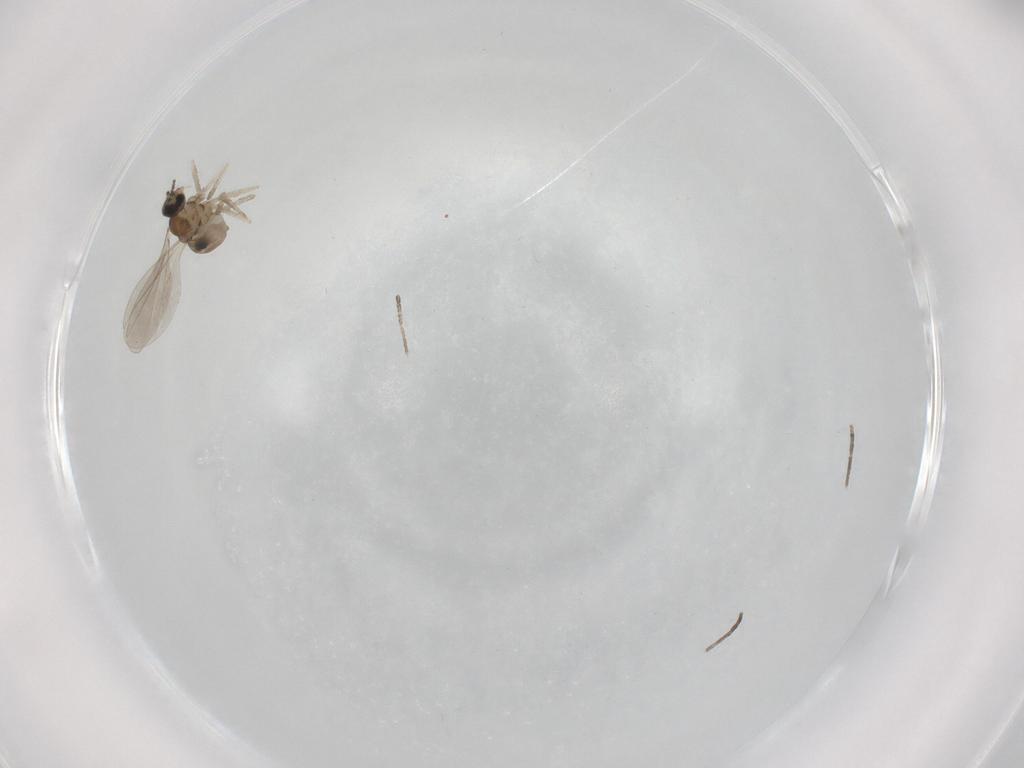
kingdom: Animalia
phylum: Arthropoda
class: Insecta
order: Diptera
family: Cecidomyiidae
